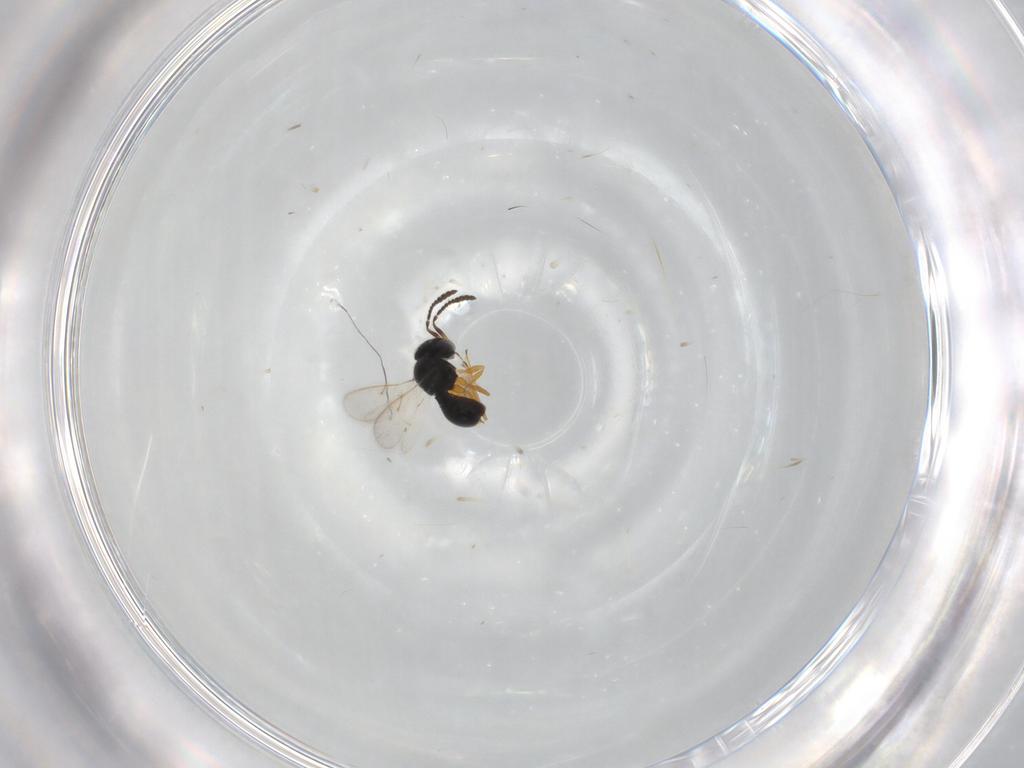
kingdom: Animalia
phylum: Arthropoda
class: Insecta
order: Hymenoptera
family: Scelionidae
